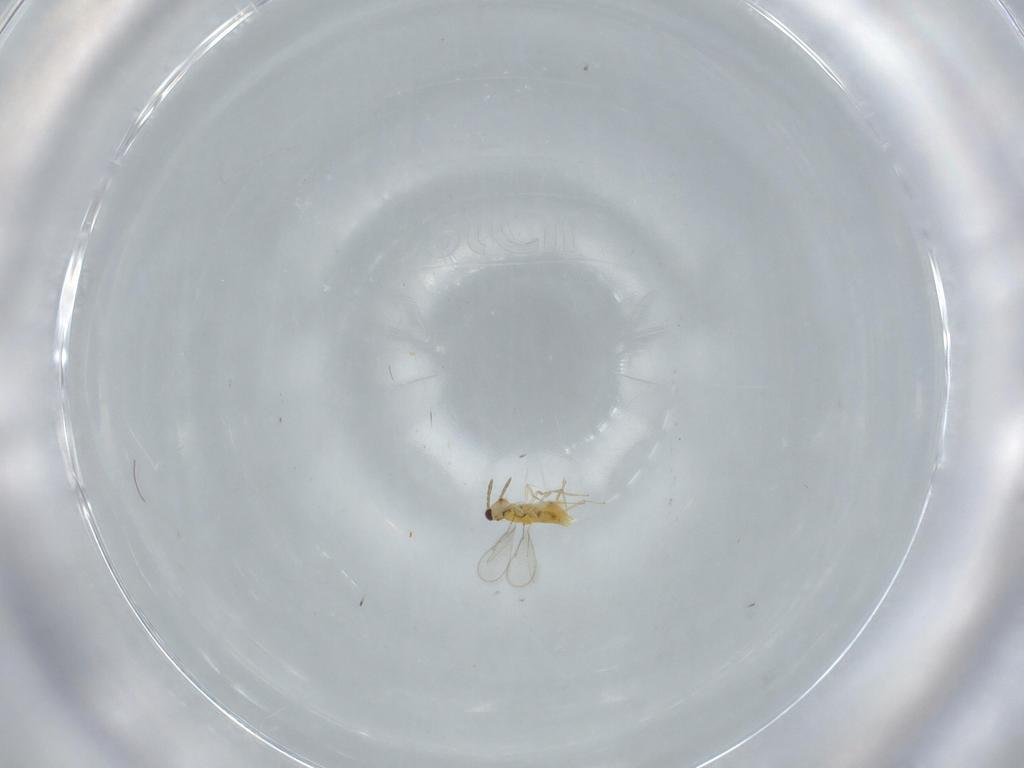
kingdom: Animalia
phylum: Arthropoda
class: Insecta
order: Hymenoptera
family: Aphelinidae
